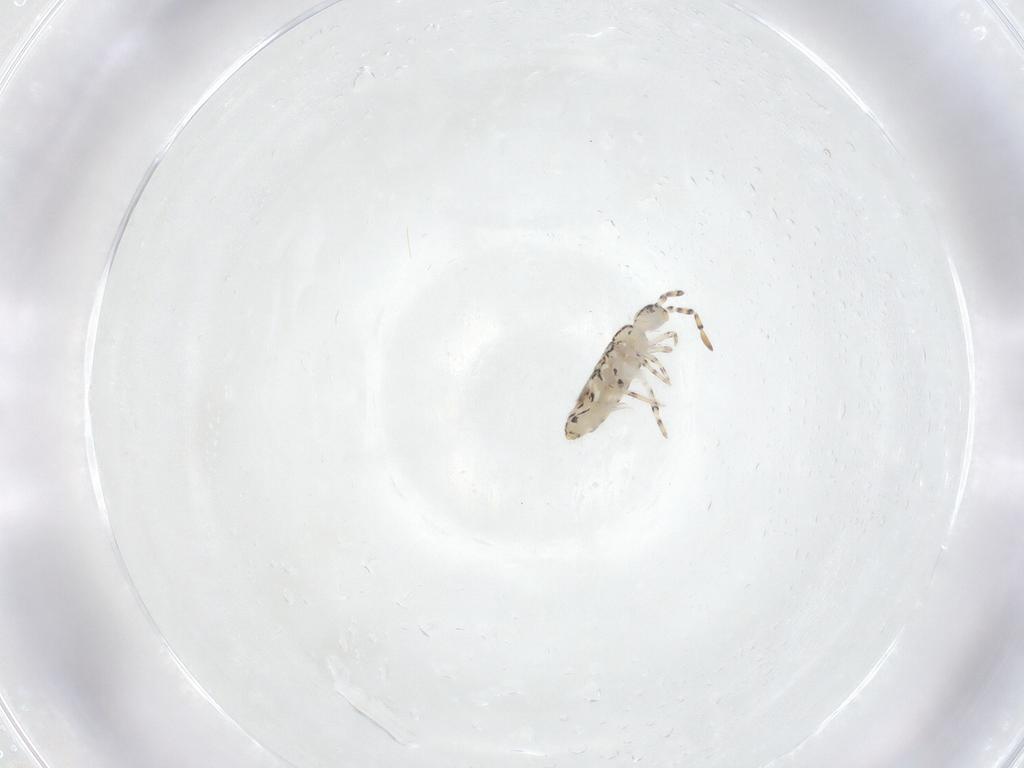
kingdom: Animalia
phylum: Arthropoda
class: Collembola
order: Entomobryomorpha
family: Entomobryidae
